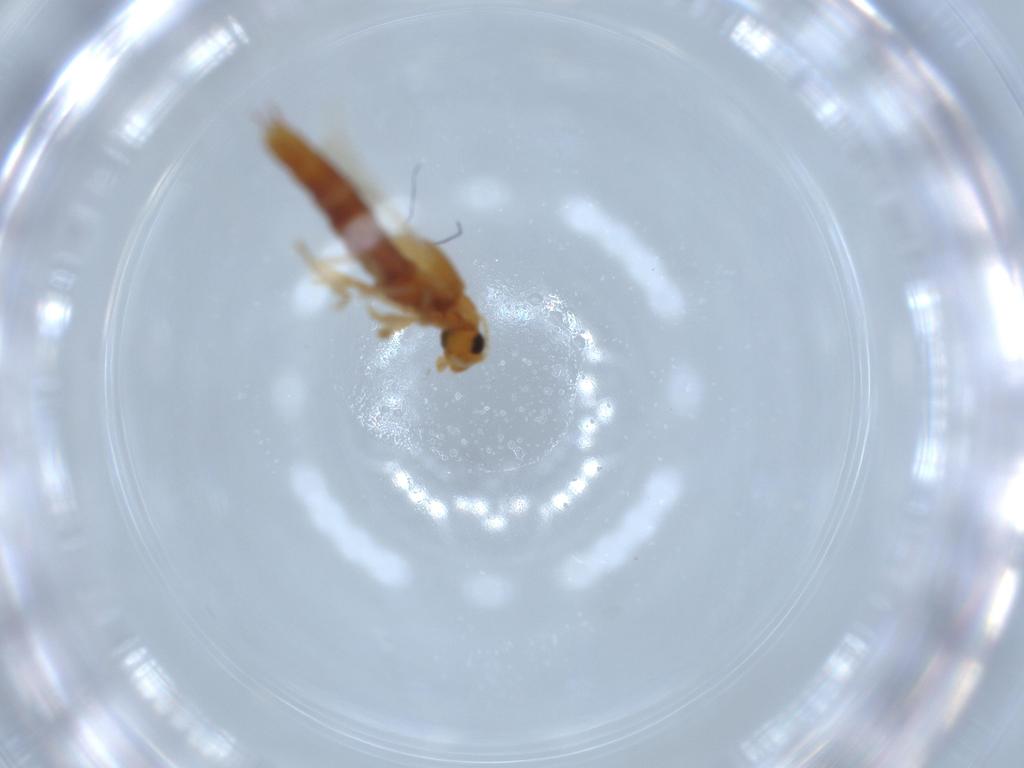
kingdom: Animalia
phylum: Arthropoda
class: Insecta
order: Coleoptera
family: Staphylinidae
